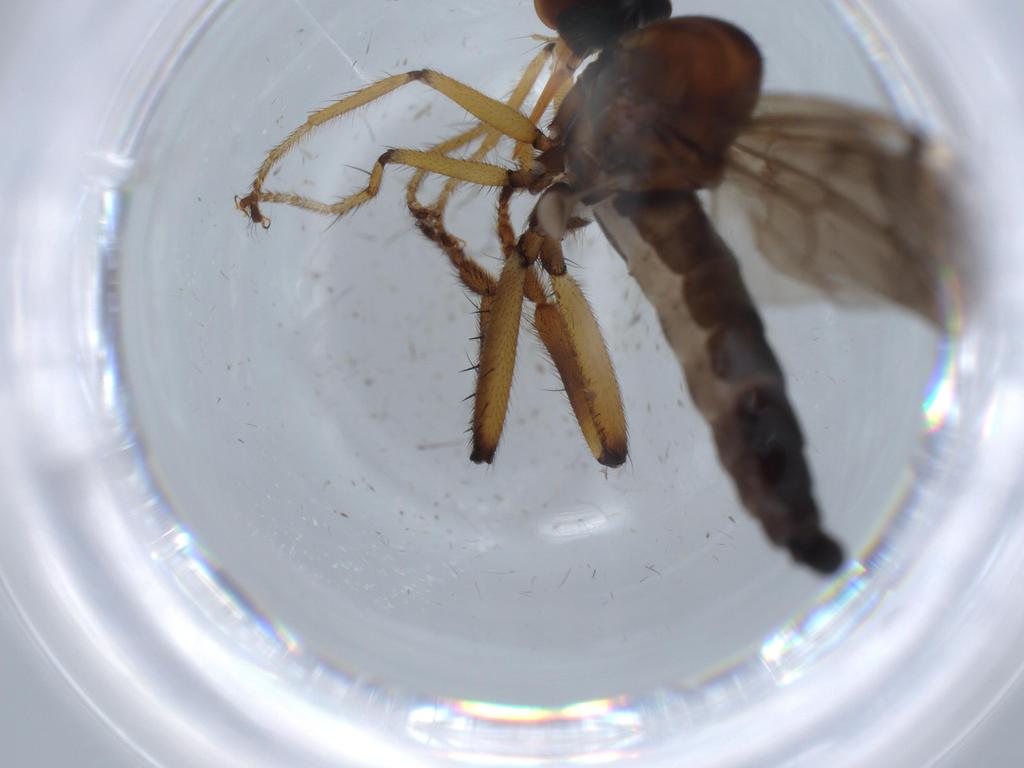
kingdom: Animalia
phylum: Arthropoda
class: Insecta
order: Diptera
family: Hybotidae
